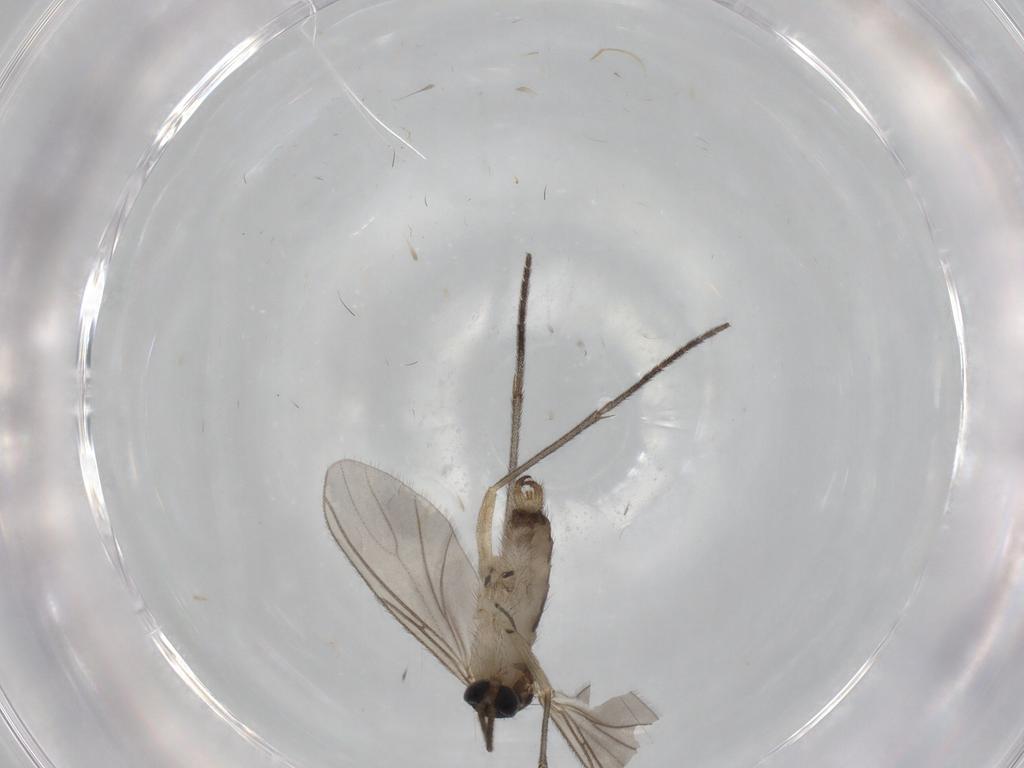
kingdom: Animalia
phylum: Arthropoda
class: Insecta
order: Diptera
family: Sciaridae
